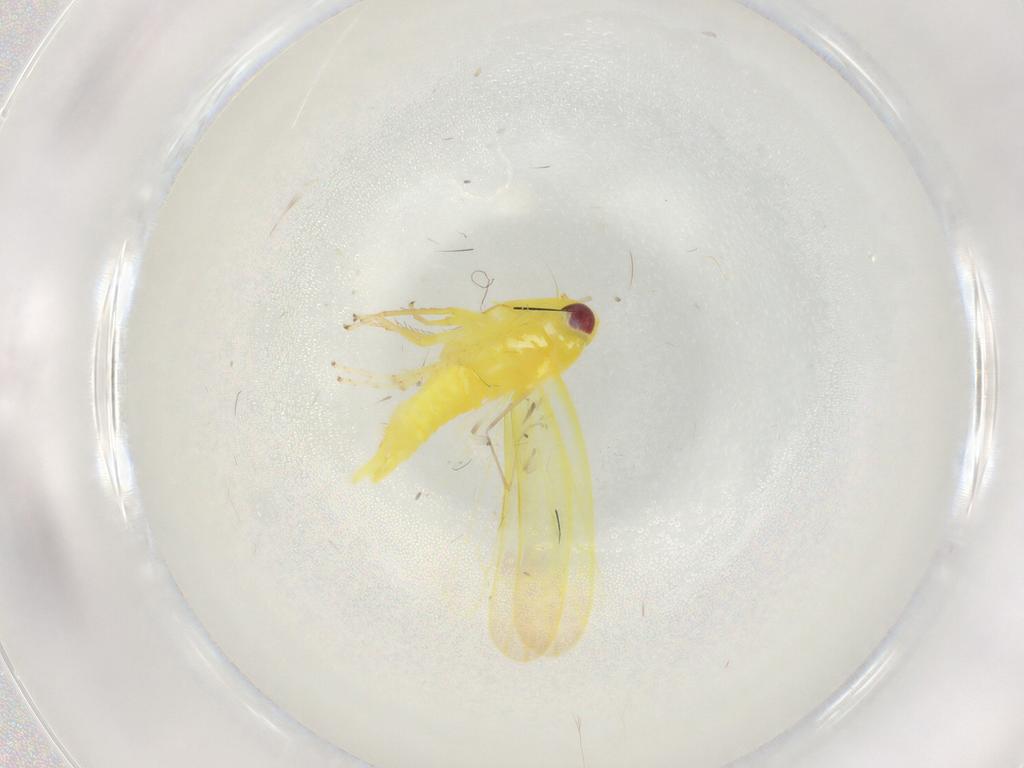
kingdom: Animalia
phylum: Arthropoda
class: Insecta
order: Hemiptera
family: Cicadellidae
